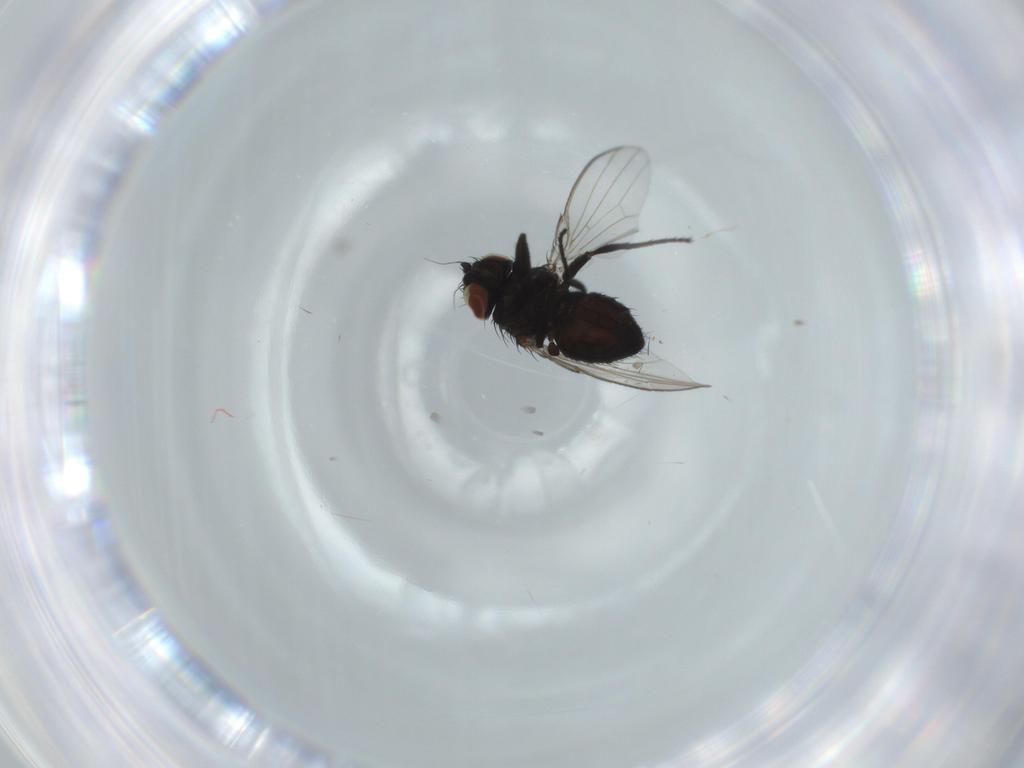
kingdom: Animalia
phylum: Arthropoda
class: Insecta
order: Diptera
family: Milichiidae
